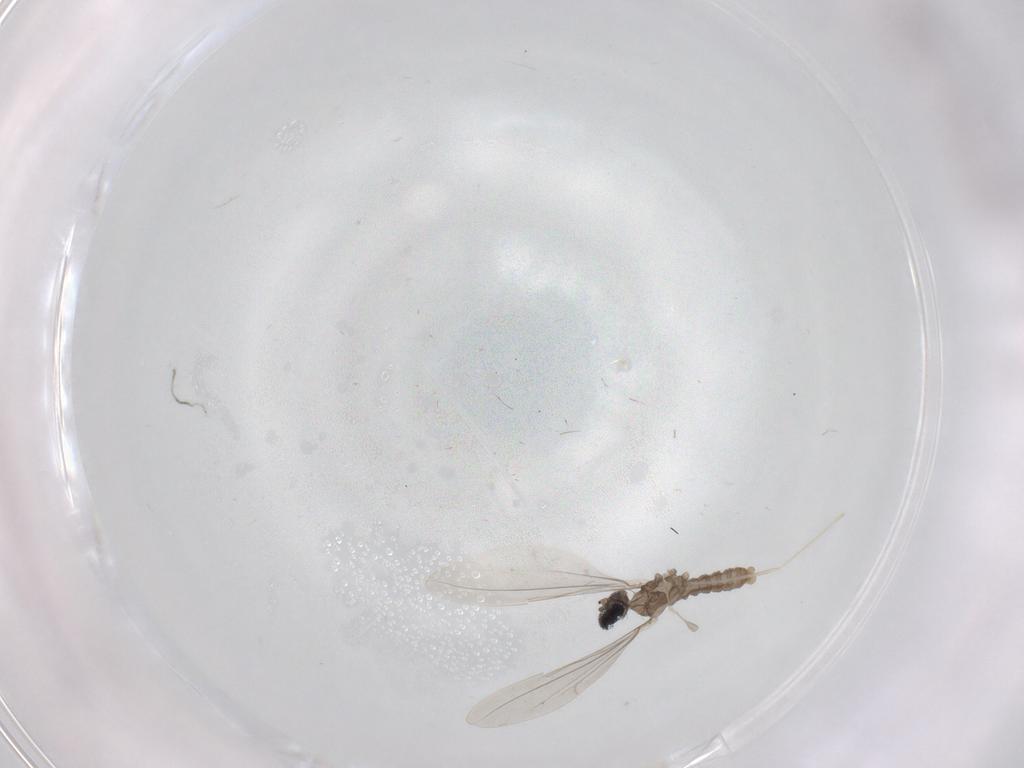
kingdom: Animalia
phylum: Arthropoda
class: Insecta
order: Diptera
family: Cecidomyiidae
